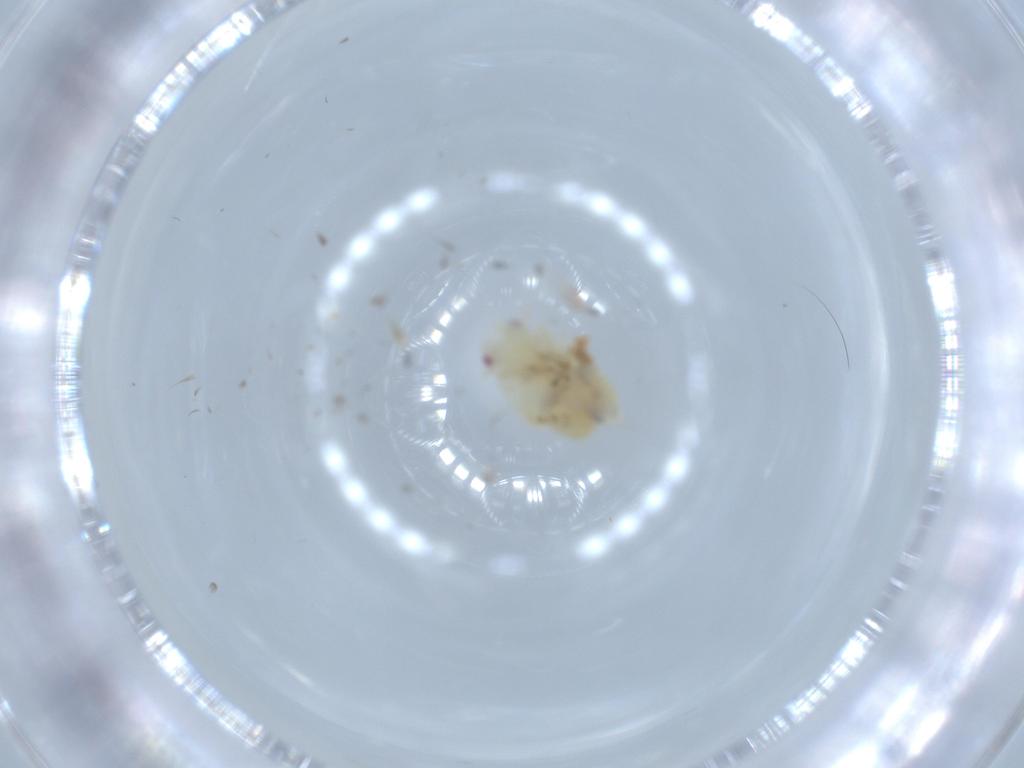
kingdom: Animalia
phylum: Arthropoda
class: Insecta
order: Hemiptera
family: Flatidae
